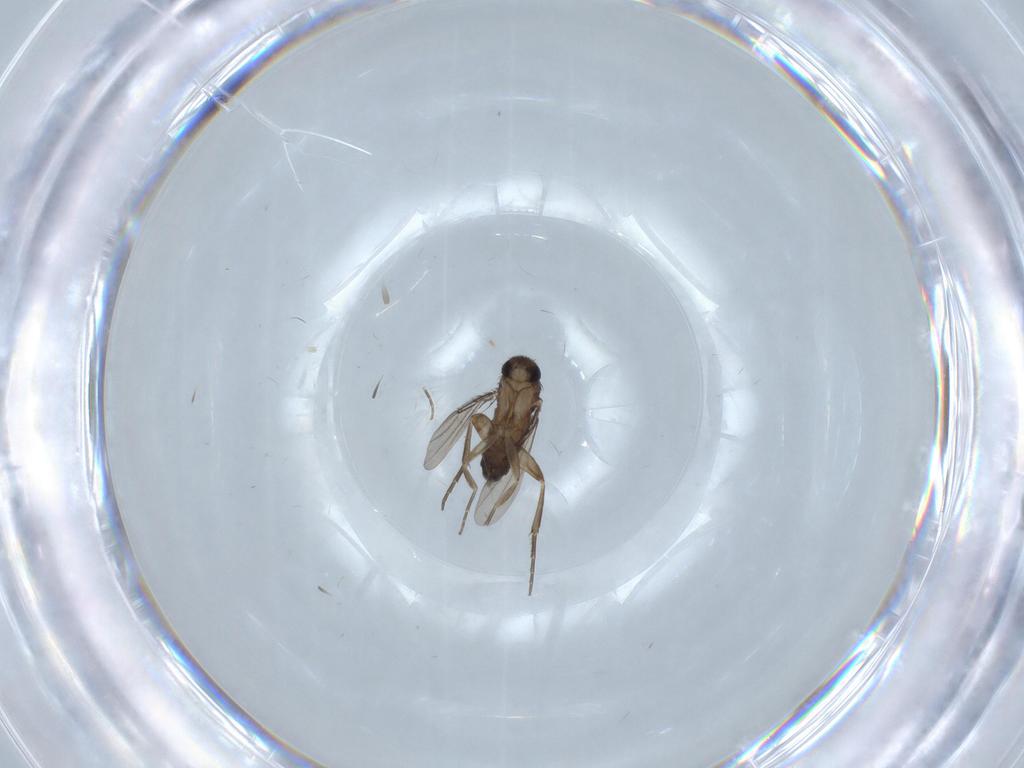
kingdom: Animalia
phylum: Arthropoda
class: Insecta
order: Diptera
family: Phoridae
